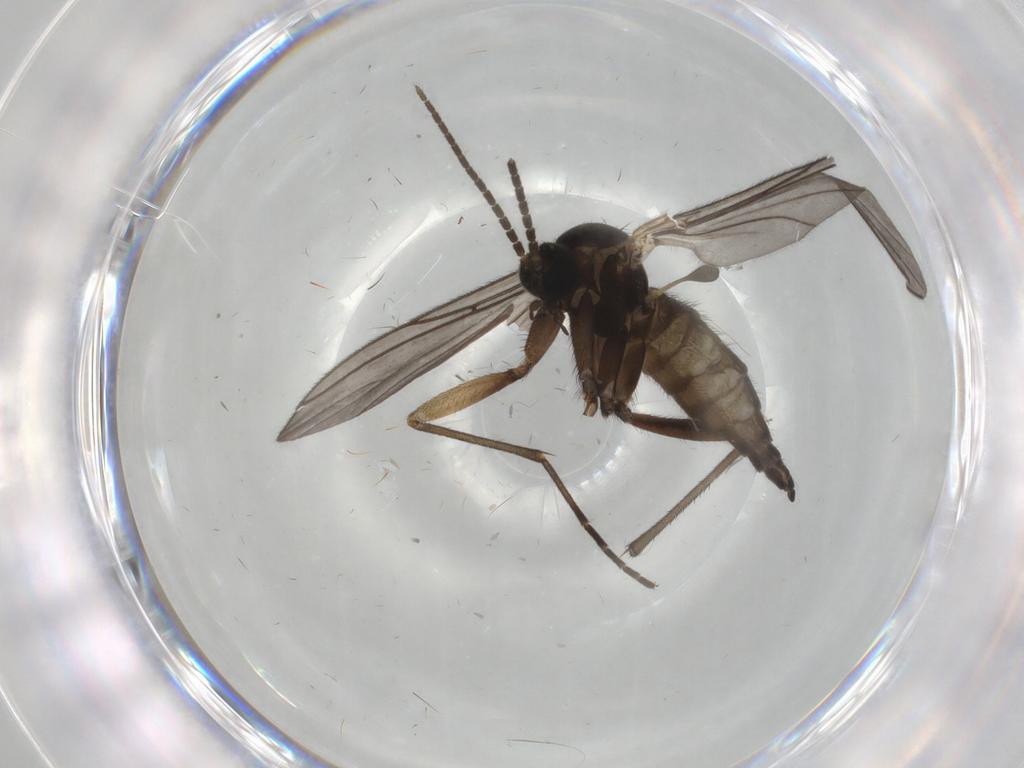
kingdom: Animalia
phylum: Arthropoda
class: Insecta
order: Diptera
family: Sciaridae
